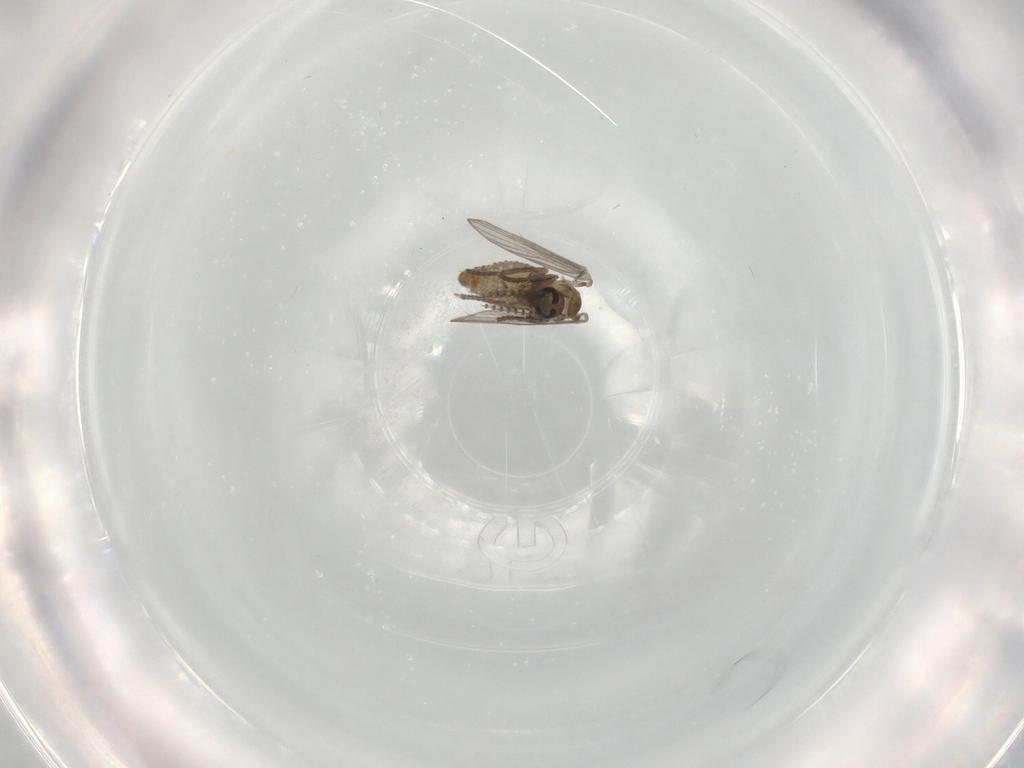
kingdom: Animalia
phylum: Arthropoda
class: Insecta
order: Diptera
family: Psychodidae
